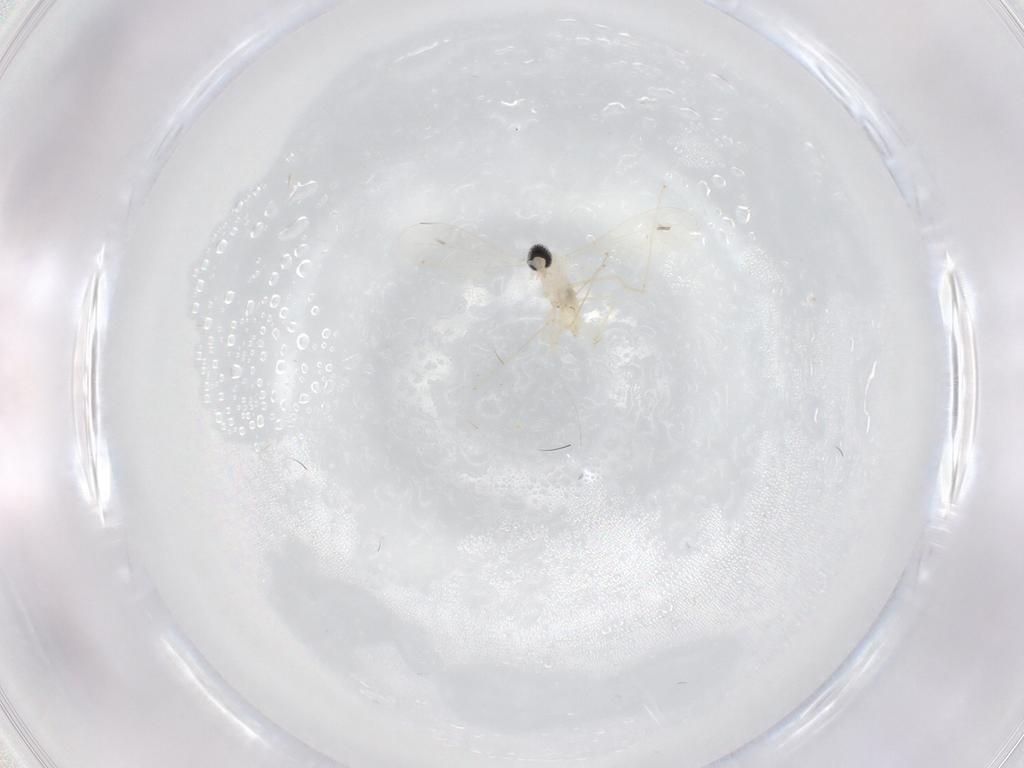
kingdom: Animalia
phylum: Arthropoda
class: Insecta
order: Diptera
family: Cecidomyiidae
